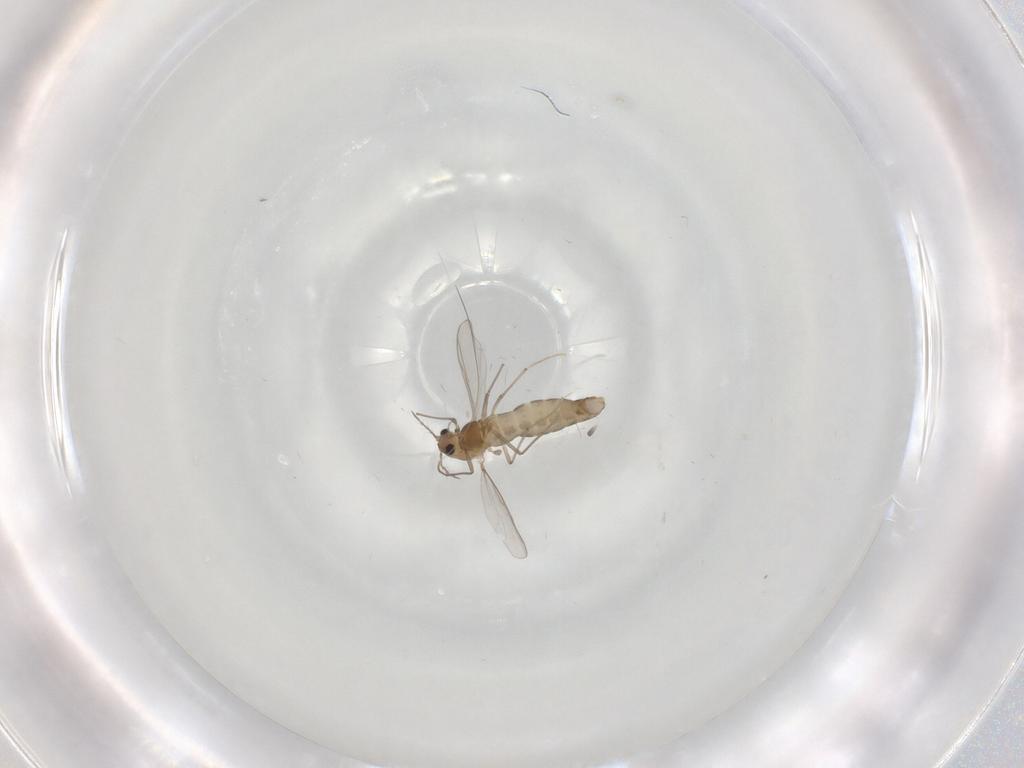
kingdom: Animalia
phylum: Arthropoda
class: Insecta
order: Diptera
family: Chironomidae
